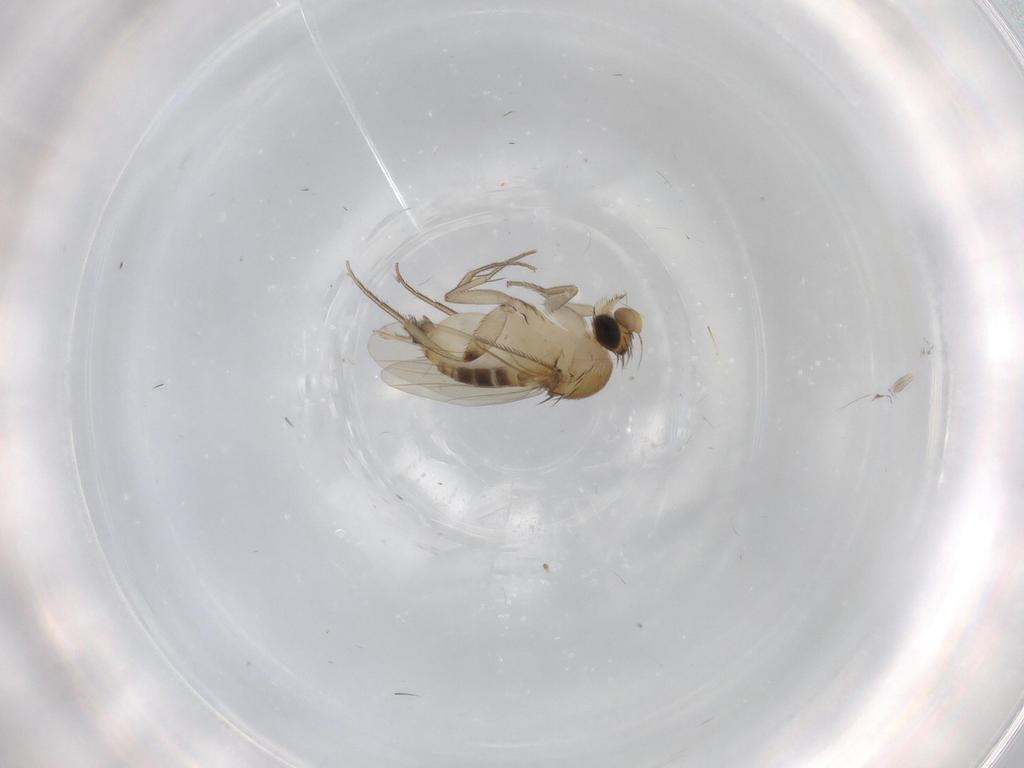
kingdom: Animalia
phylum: Arthropoda
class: Insecta
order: Diptera
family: Phoridae
